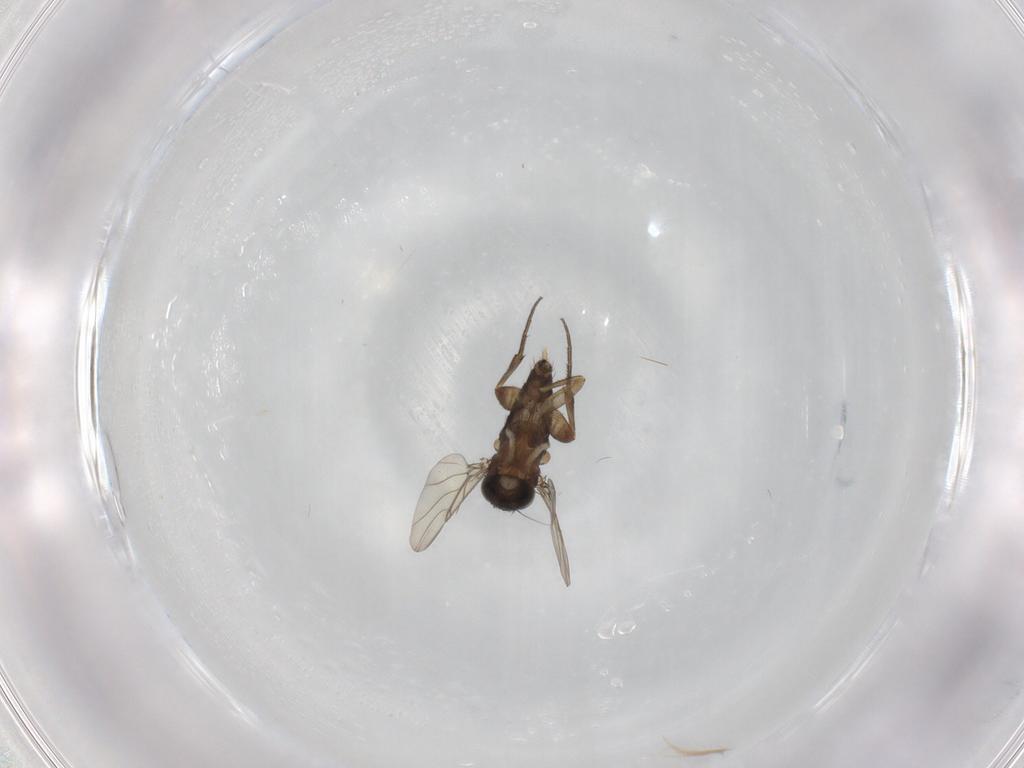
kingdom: Animalia
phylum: Arthropoda
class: Insecta
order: Diptera
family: Phoridae
